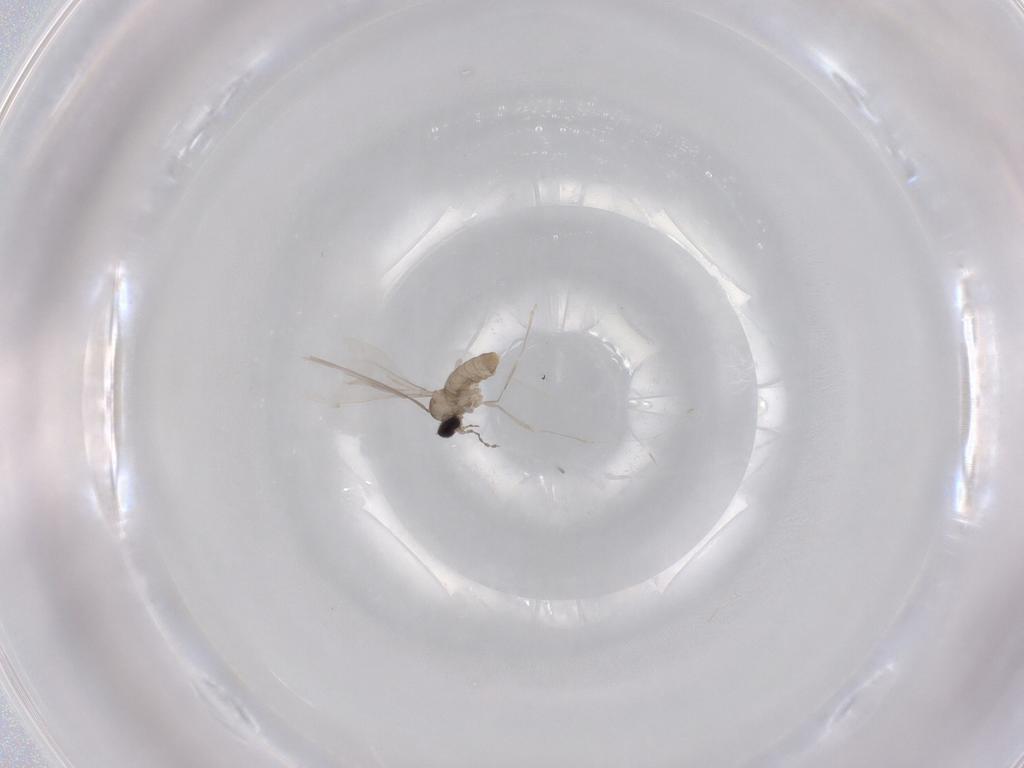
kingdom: Animalia
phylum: Arthropoda
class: Insecta
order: Diptera
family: Cecidomyiidae
